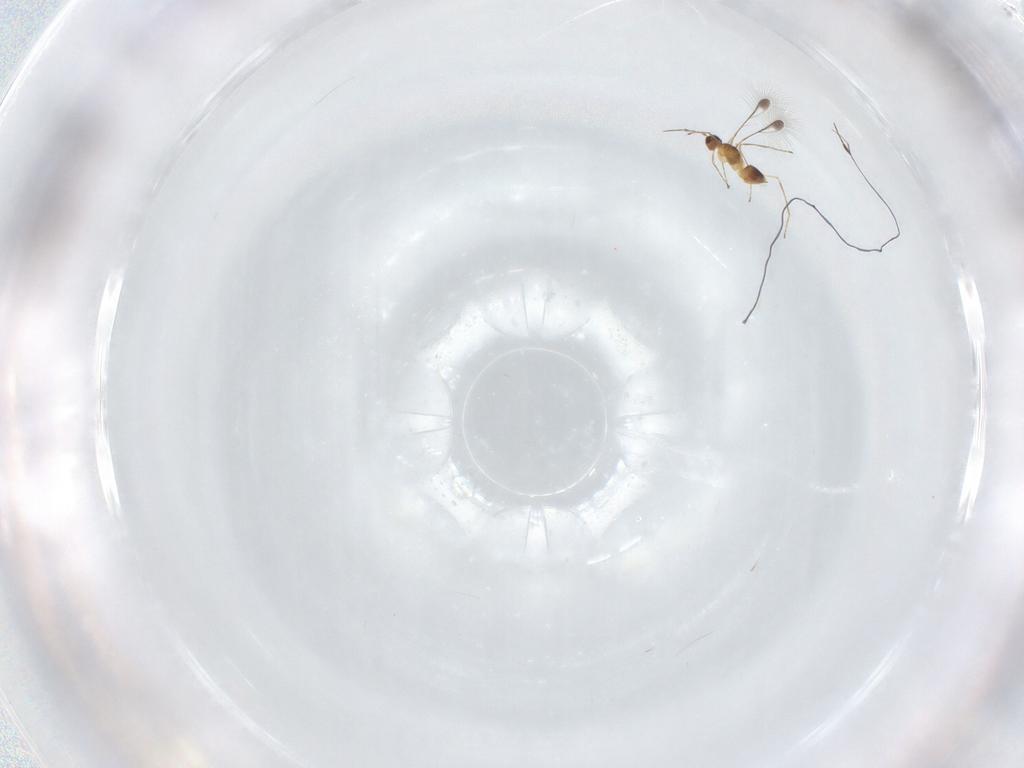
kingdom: Animalia
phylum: Arthropoda
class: Insecta
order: Hymenoptera
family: Mymaridae
